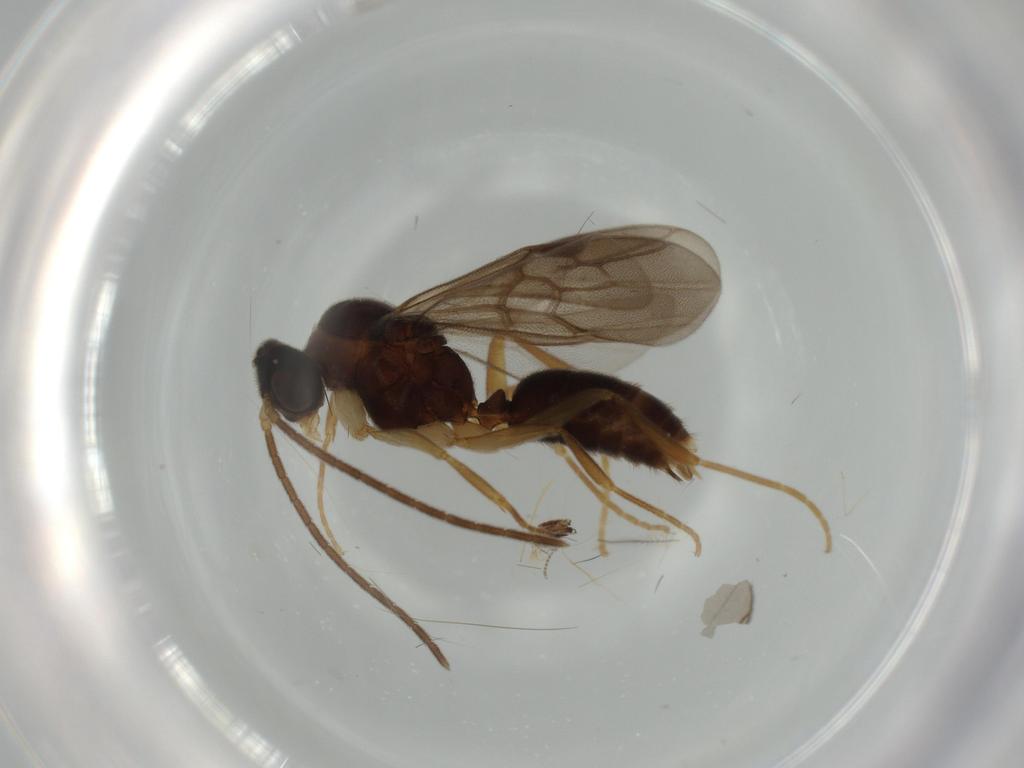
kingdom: Animalia
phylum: Arthropoda
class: Insecta
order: Hymenoptera
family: Formicidae
